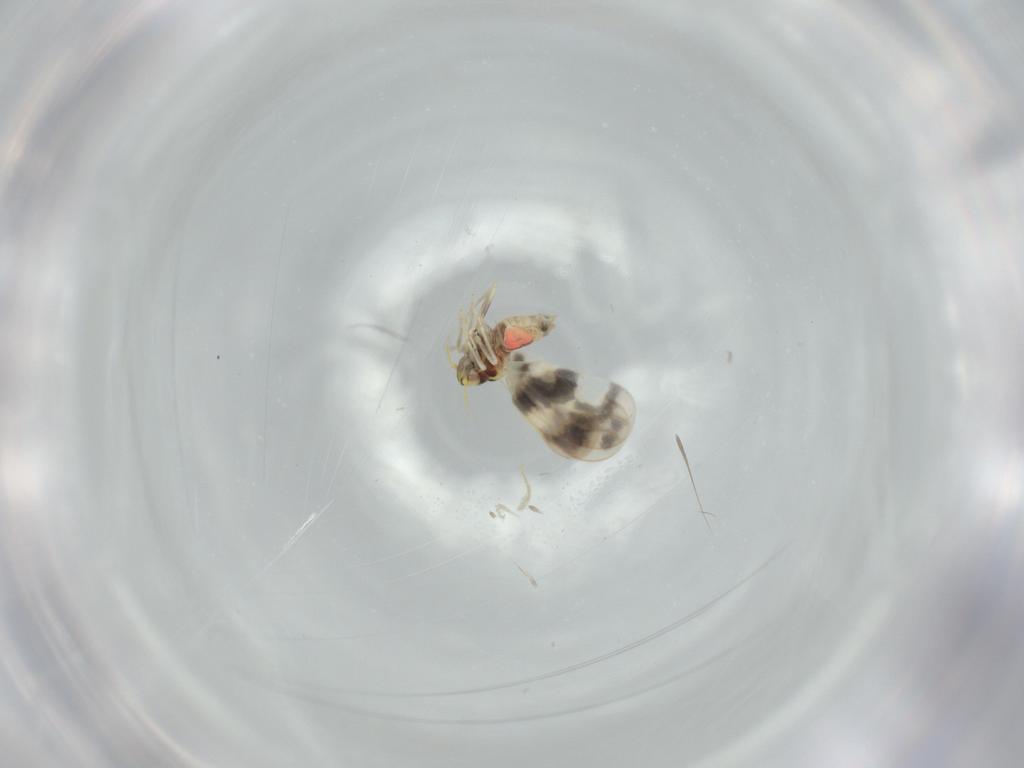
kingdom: Animalia
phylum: Arthropoda
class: Insecta
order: Hemiptera
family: Aleyrodidae
